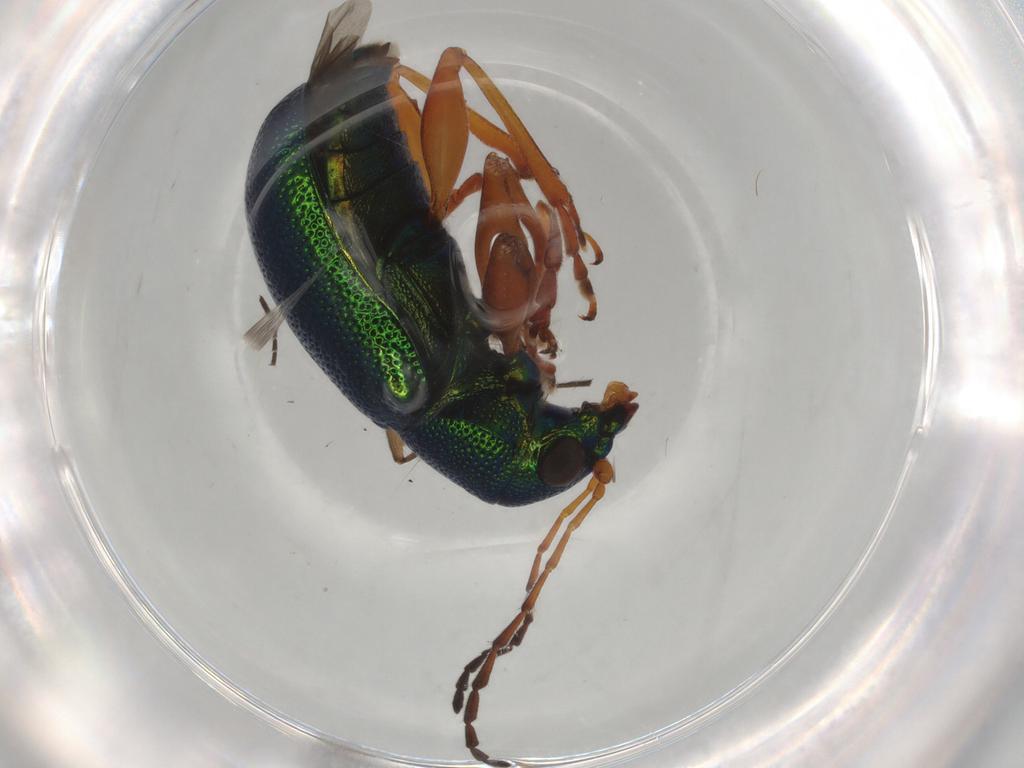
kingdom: Animalia
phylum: Arthropoda
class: Insecta
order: Coleoptera
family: Chrysomelidae
